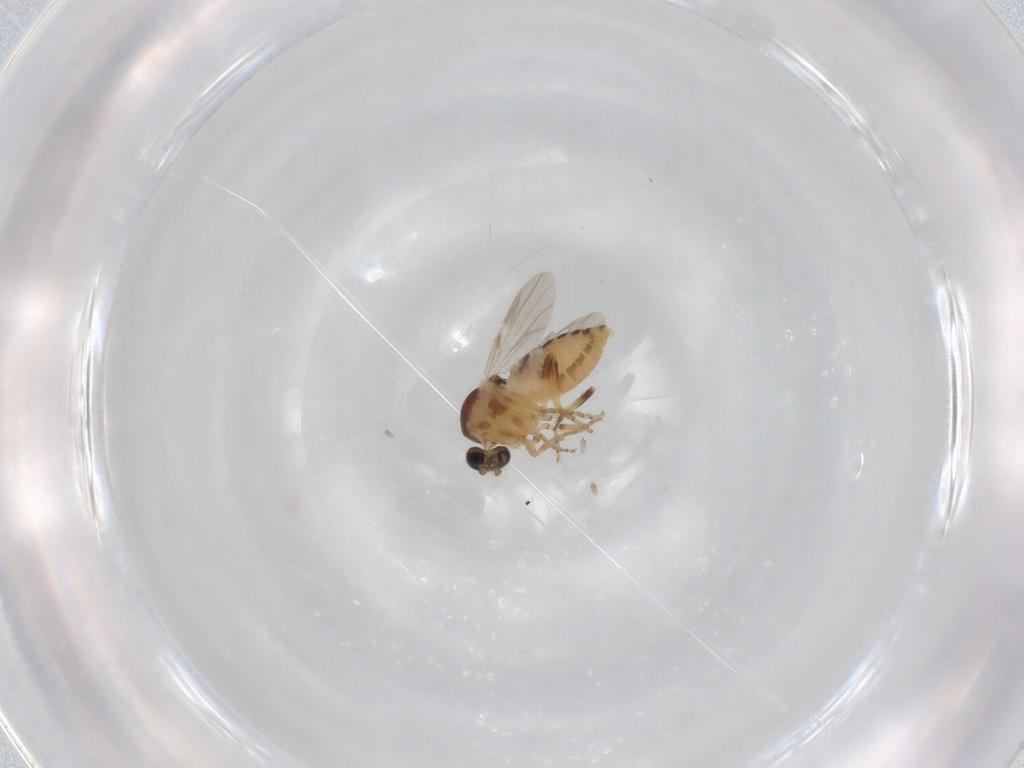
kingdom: Animalia
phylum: Arthropoda
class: Insecta
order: Diptera
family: Ceratopogonidae
